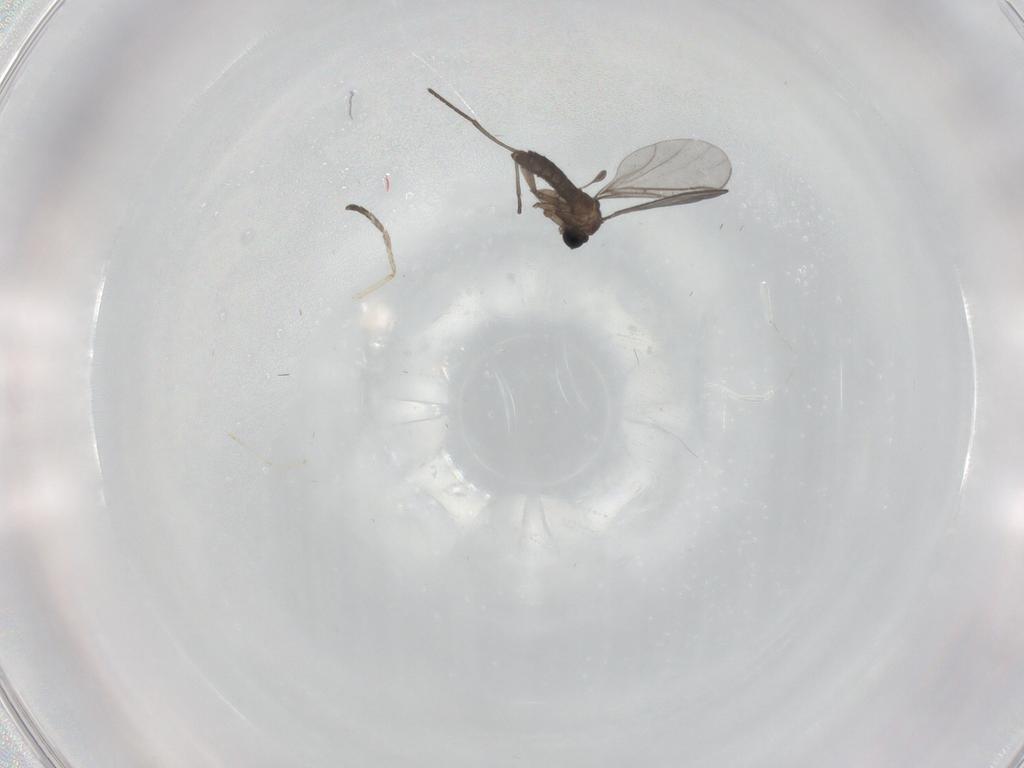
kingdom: Animalia
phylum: Arthropoda
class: Insecta
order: Diptera
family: Cecidomyiidae
